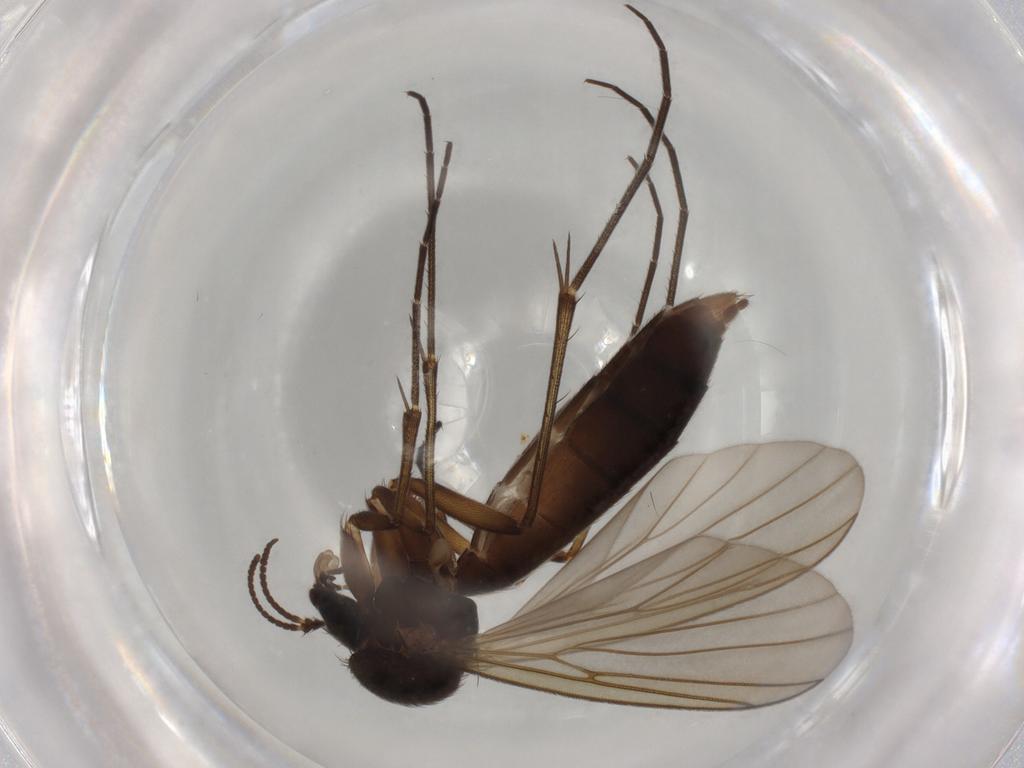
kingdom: Animalia
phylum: Arthropoda
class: Insecta
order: Diptera
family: Sciaridae
